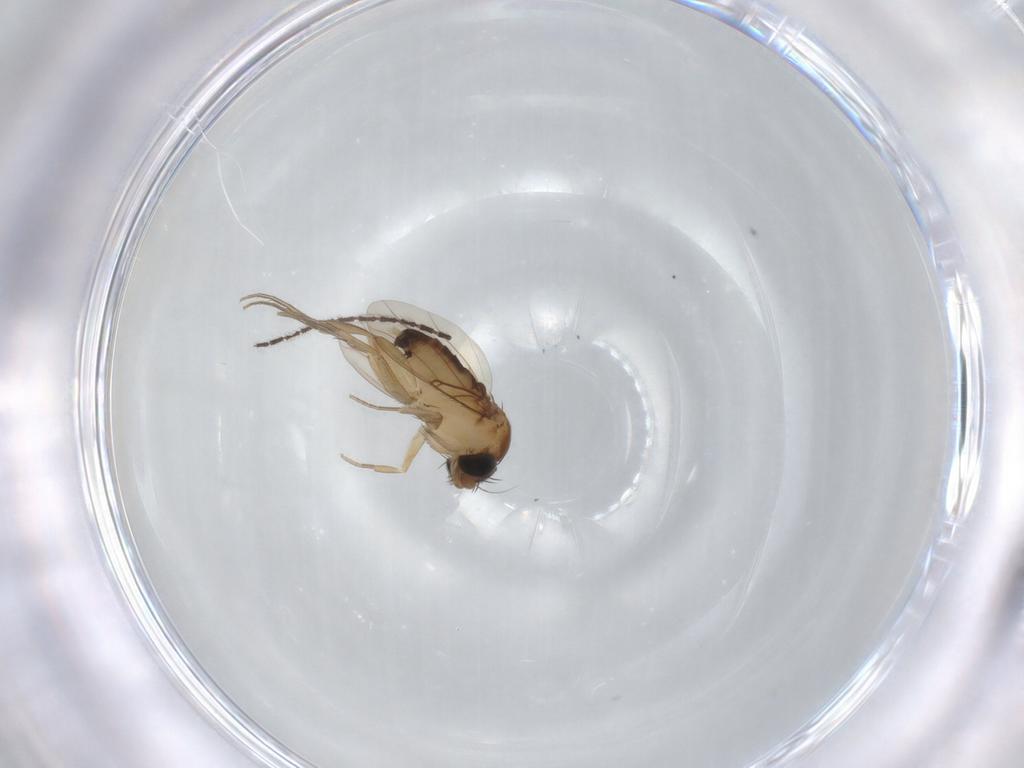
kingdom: Animalia
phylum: Arthropoda
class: Insecta
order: Diptera
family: Phoridae
